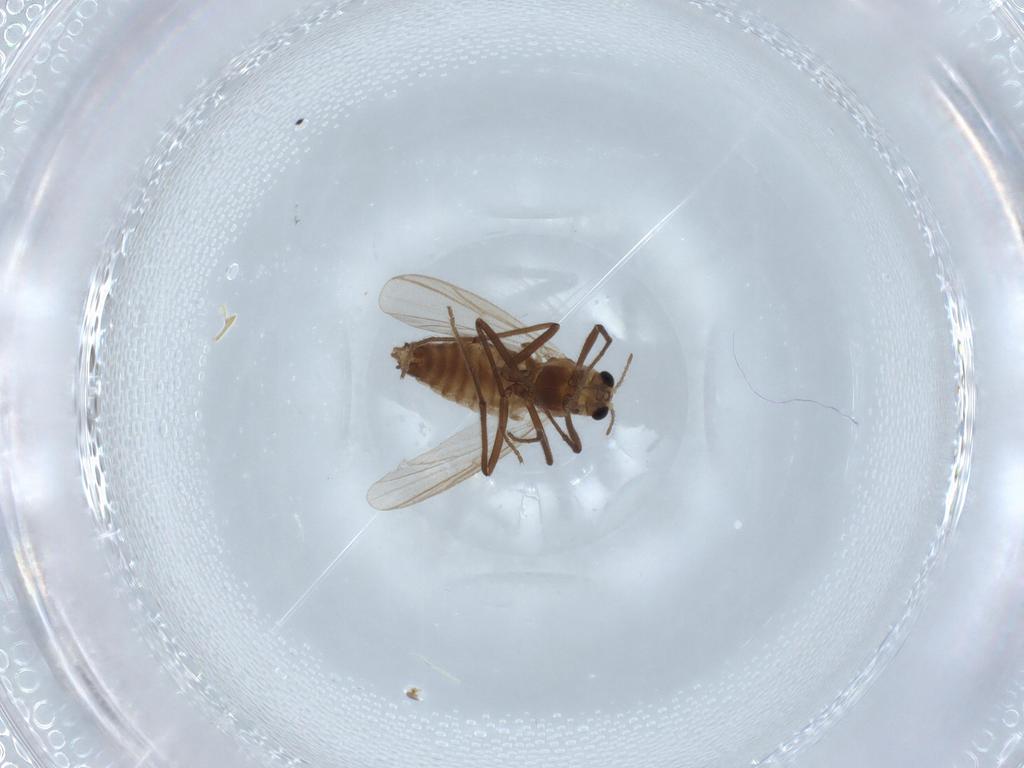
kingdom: Animalia
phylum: Arthropoda
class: Insecta
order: Diptera
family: Chironomidae
